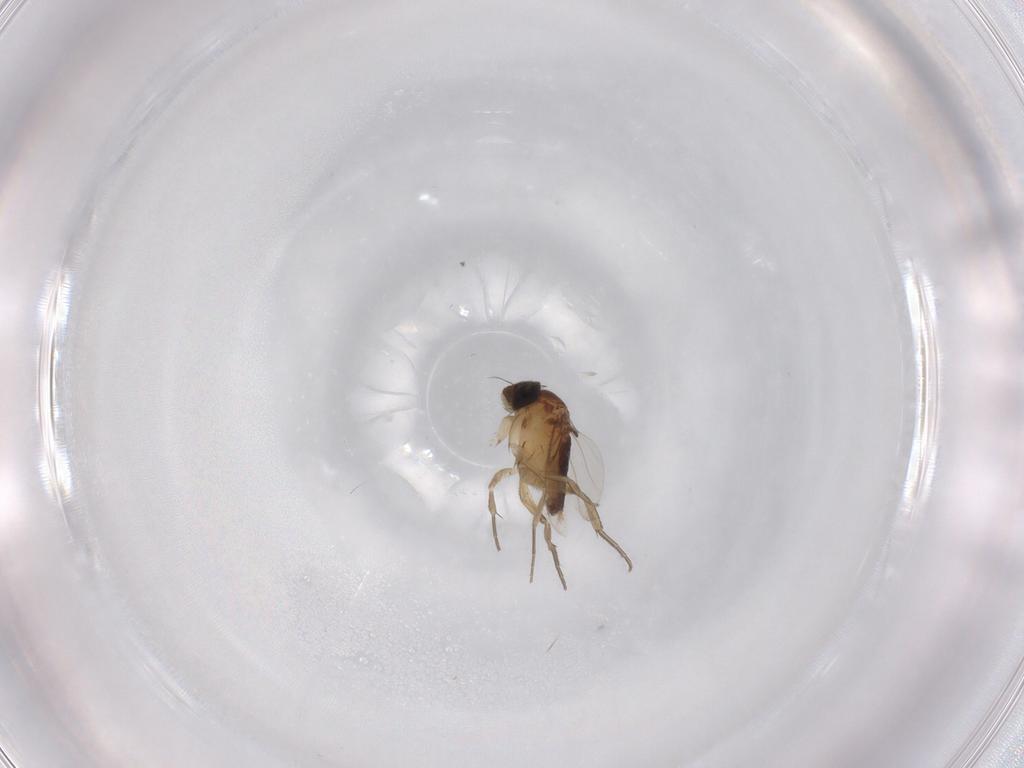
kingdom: Animalia
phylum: Arthropoda
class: Insecta
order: Diptera
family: Phoridae
